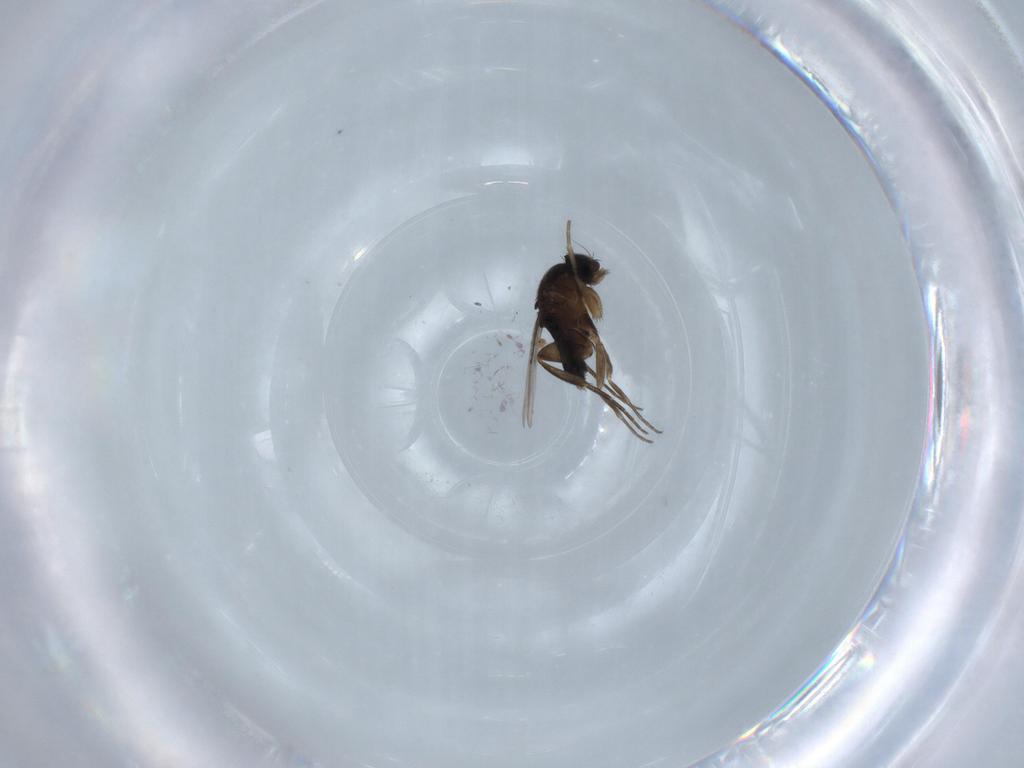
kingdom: Animalia
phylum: Arthropoda
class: Insecta
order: Diptera
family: Phoridae
